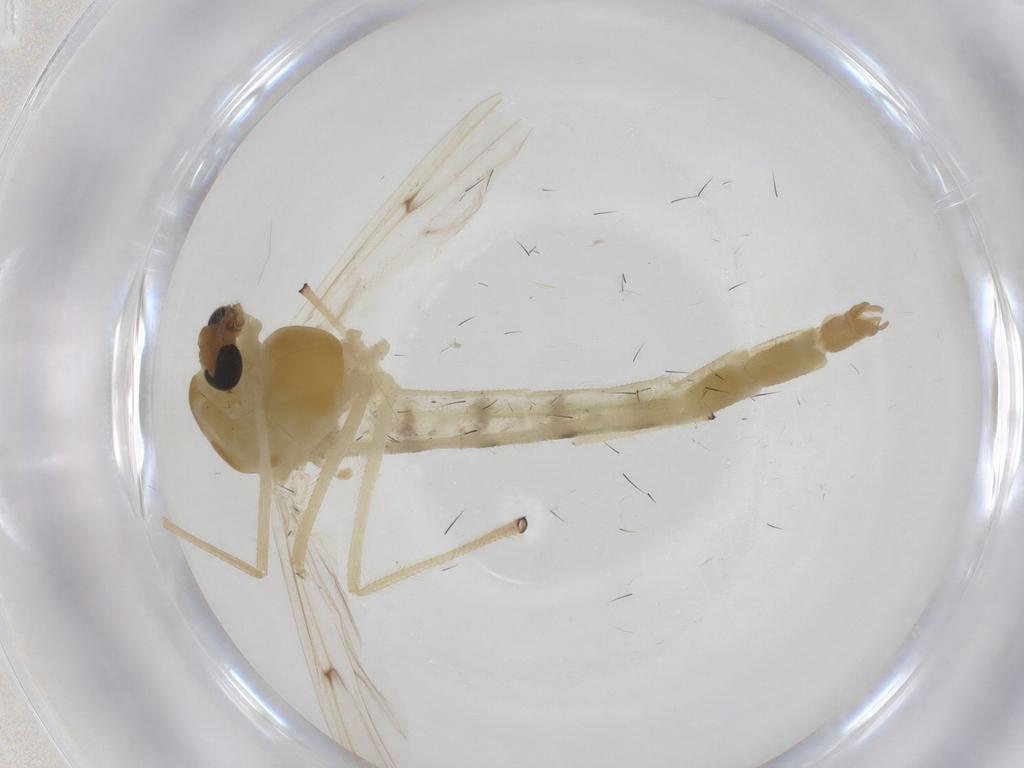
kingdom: Animalia
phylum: Arthropoda
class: Insecta
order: Diptera
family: Chironomidae
